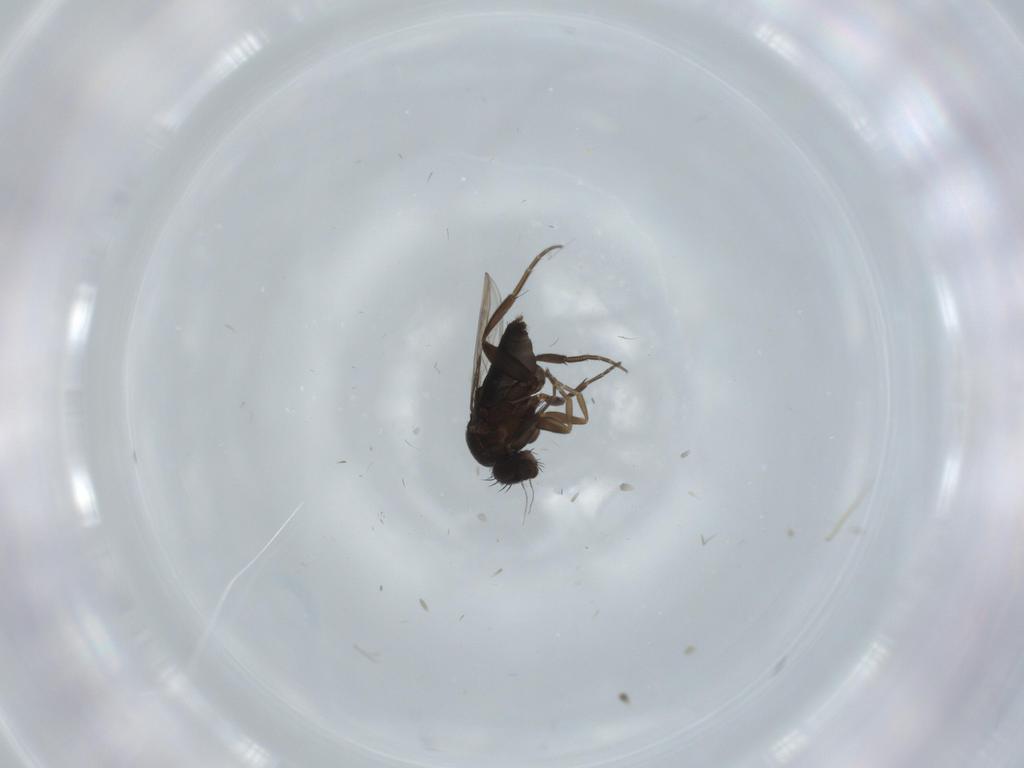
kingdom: Animalia
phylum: Arthropoda
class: Insecta
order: Diptera
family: Phoridae
